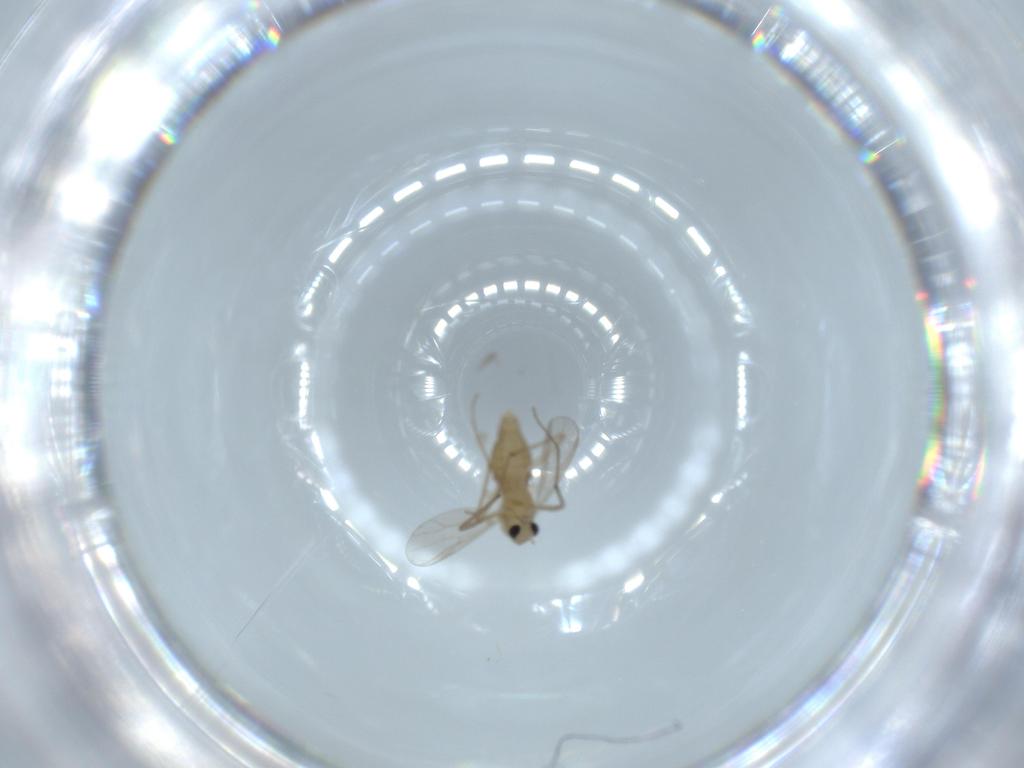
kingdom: Animalia
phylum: Arthropoda
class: Insecta
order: Diptera
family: Chironomidae
